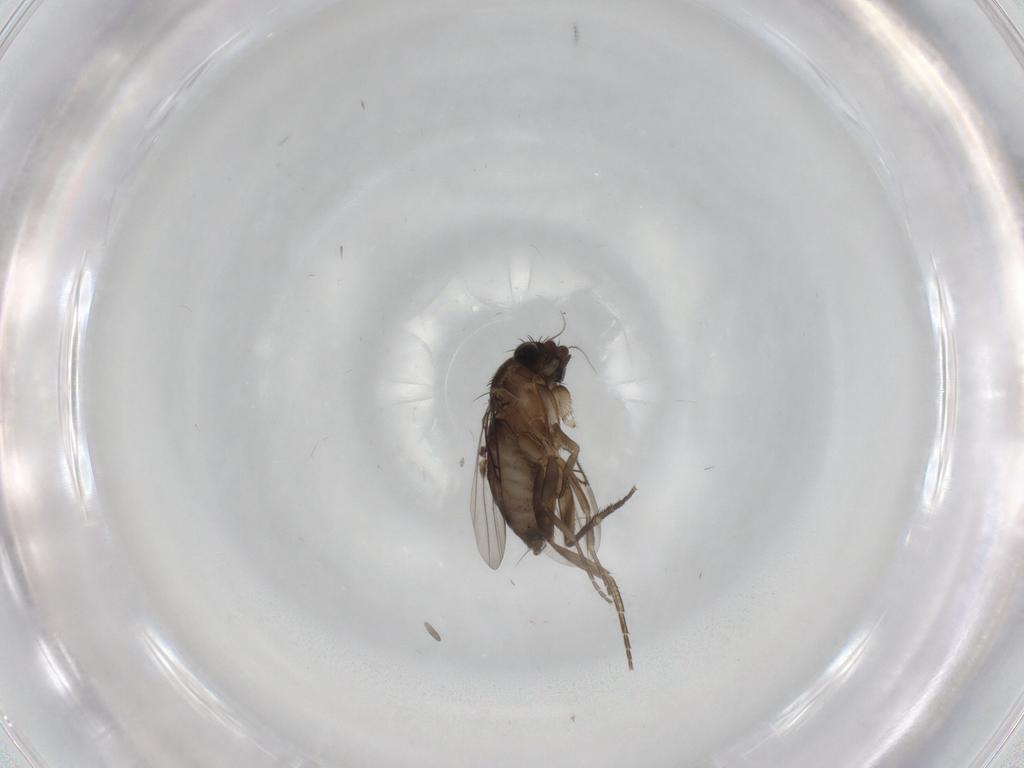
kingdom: Animalia
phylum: Arthropoda
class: Insecta
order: Diptera
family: Phoridae
